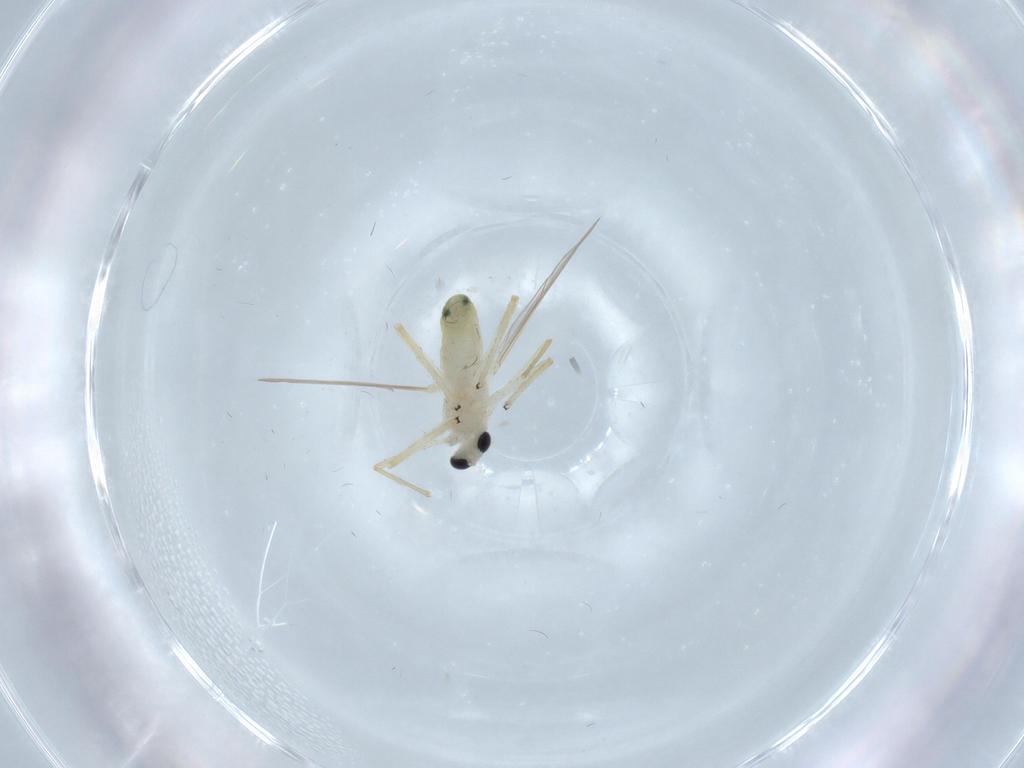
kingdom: Animalia
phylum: Arthropoda
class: Insecta
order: Diptera
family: Chironomidae
